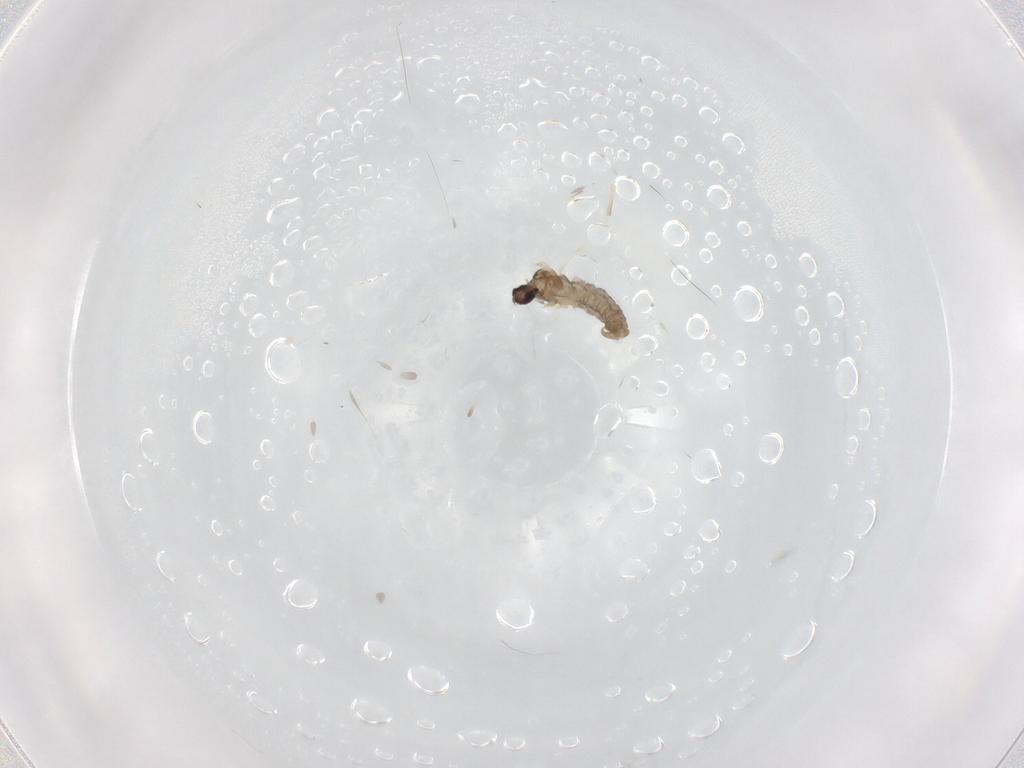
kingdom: Animalia
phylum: Arthropoda
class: Insecta
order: Diptera
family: Cecidomyiidae
